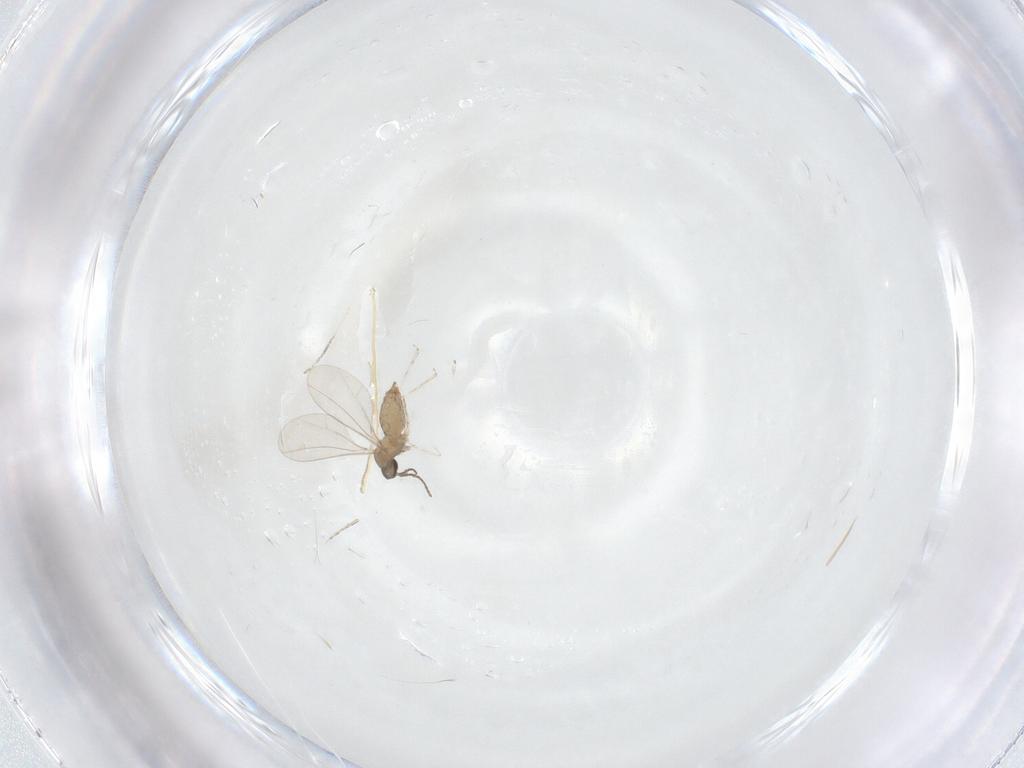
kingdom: Animalia
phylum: Arthropoda
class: Insecta
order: Diptera
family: Cecidomyiidae
